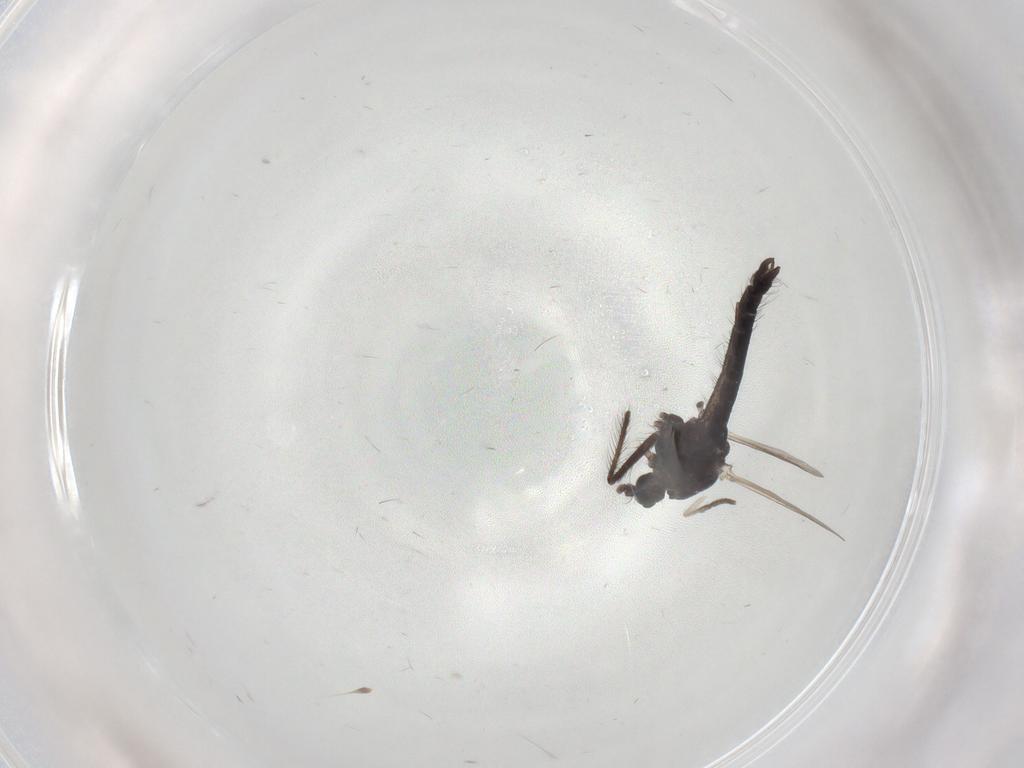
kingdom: Animalia
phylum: Arthropoda
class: Insecta
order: Diptera
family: Chironomidae
